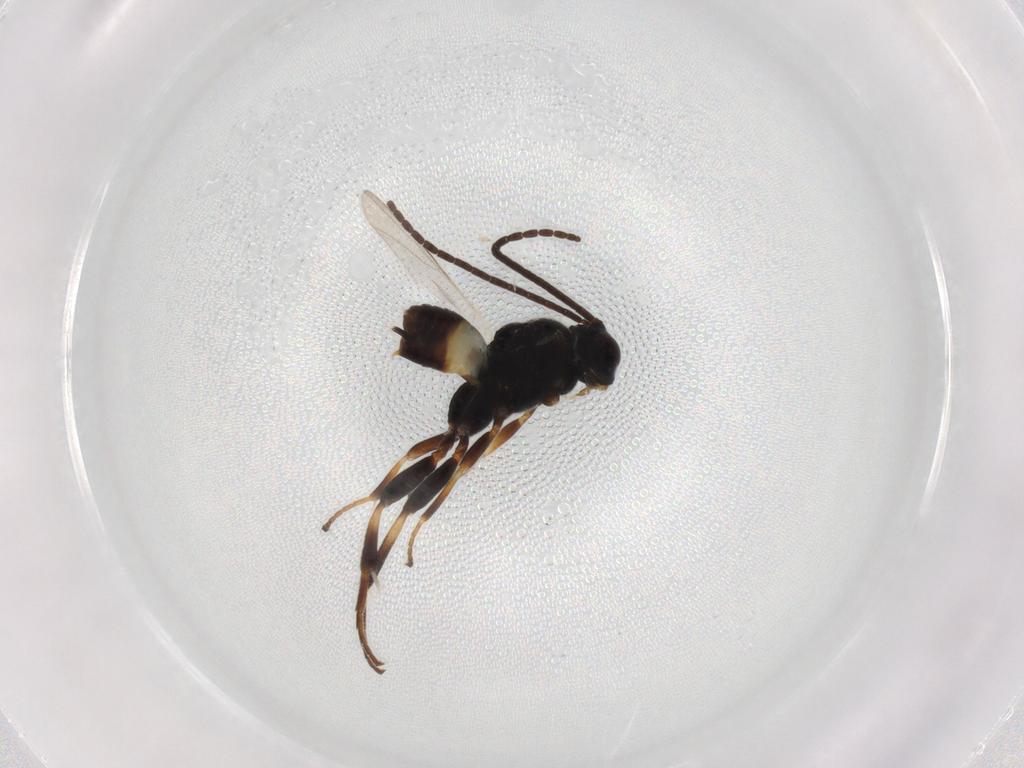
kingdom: Animalia
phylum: Arthropoda
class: Insecta
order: Hymenoptera
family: Braconidae
